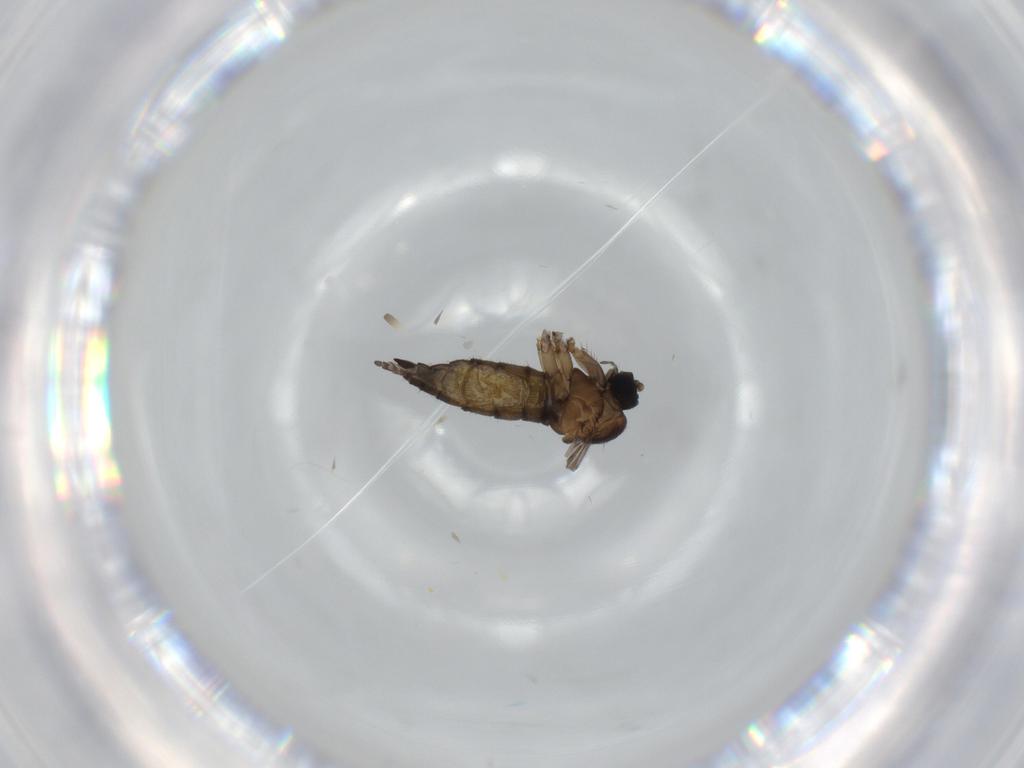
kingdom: Animalia
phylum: Arthropoda
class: Insecta
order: Diptera
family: Sciaridae
